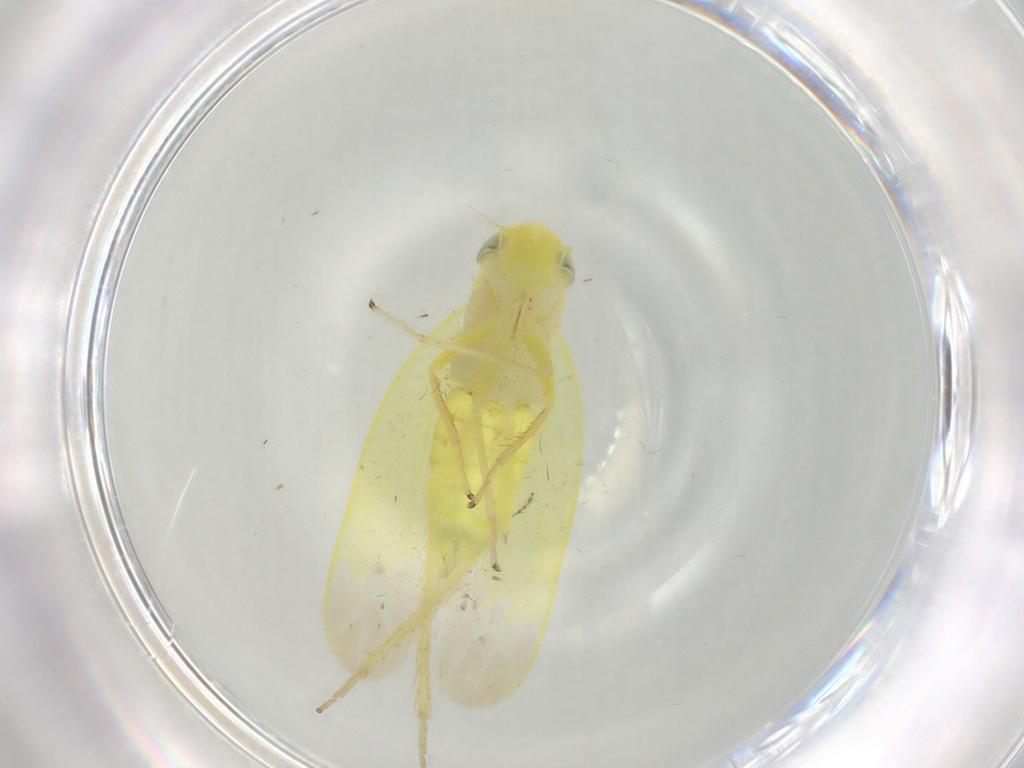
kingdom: Animalia
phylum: Arthropoda
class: Insecta
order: Hemiptera
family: Cicadellidae
